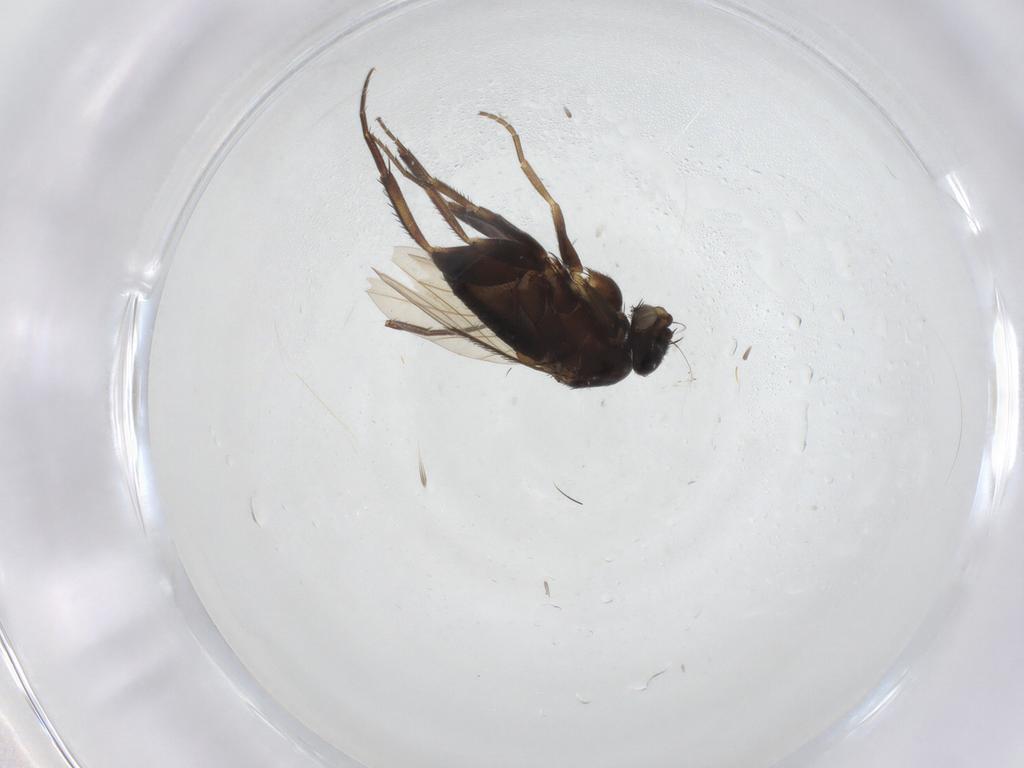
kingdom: Animalia
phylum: Arthropoda
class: Insecta
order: Diptera
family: Phoridae
